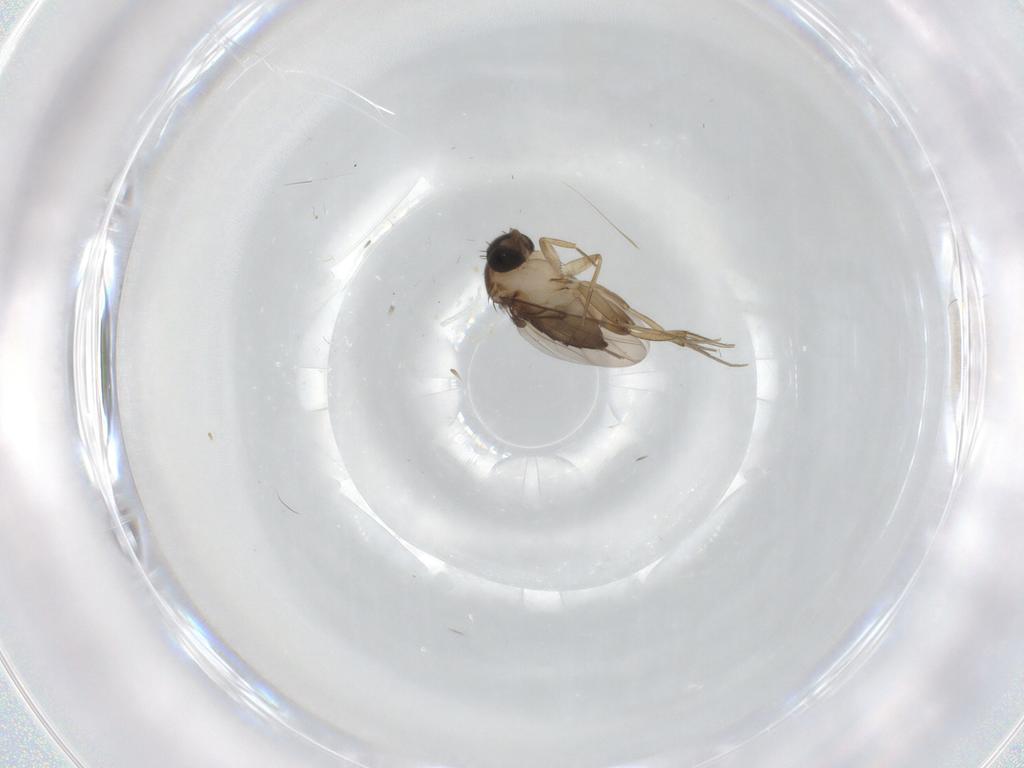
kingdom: Animalia
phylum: Arthropoda
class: Insecta
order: Diptera
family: Phoridae
